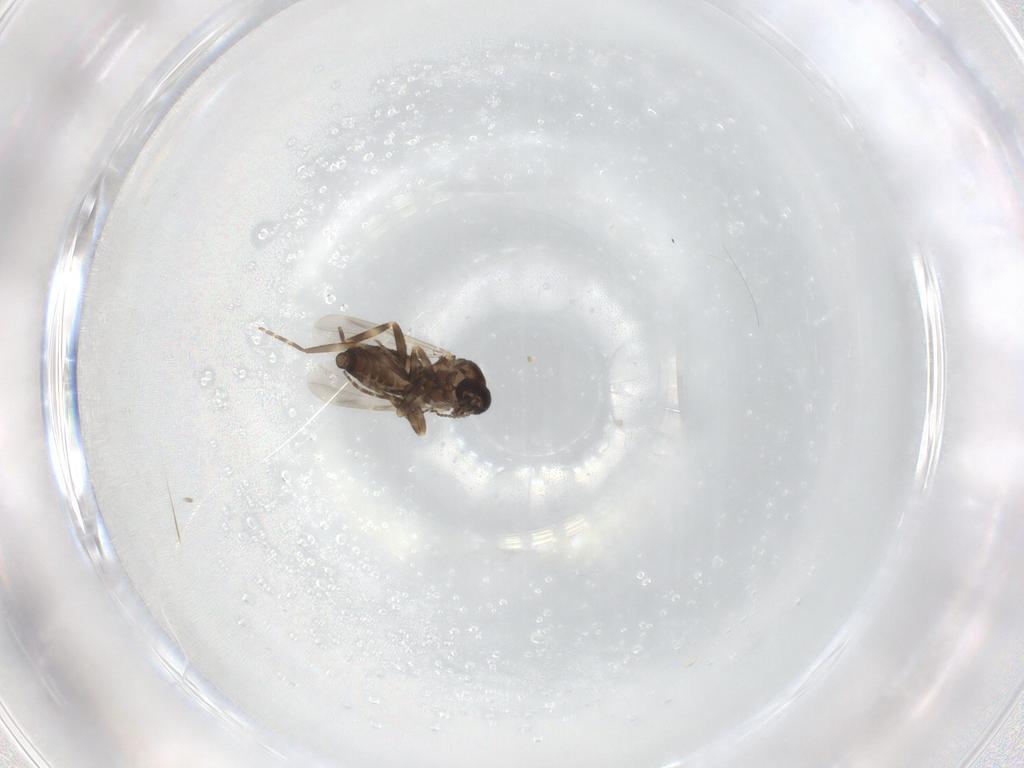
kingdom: Animalia
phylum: Arthropoda
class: Insecta
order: Diptera
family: Ceratopogonidae
